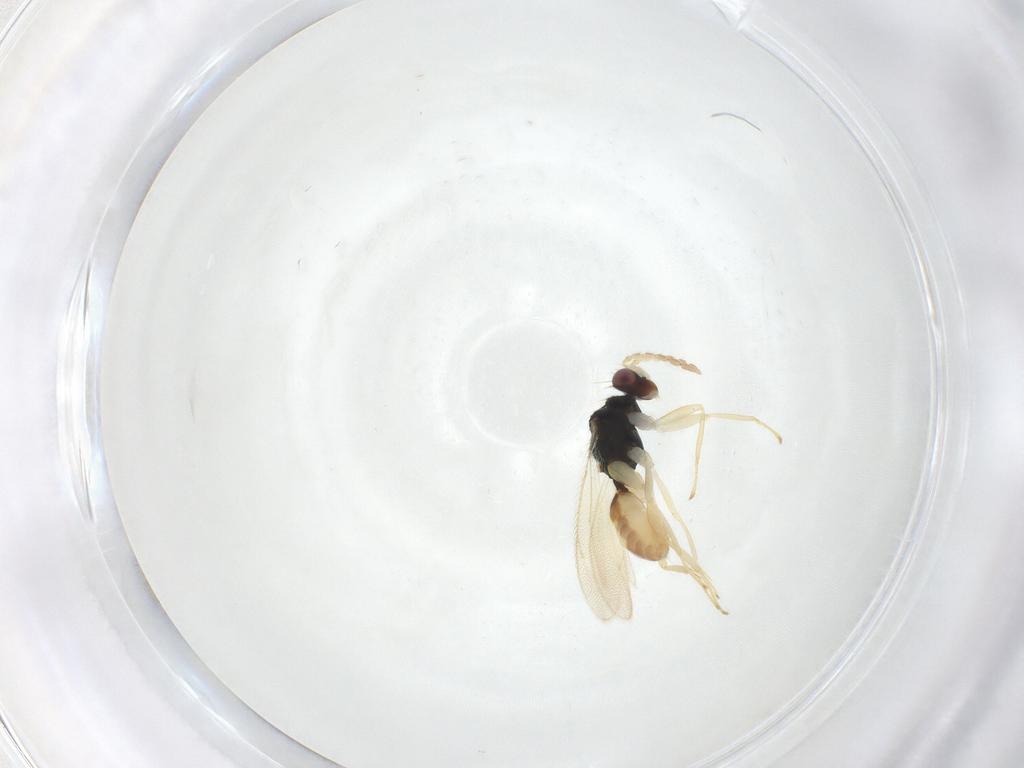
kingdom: Animalia
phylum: Arthropoda
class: Insecta
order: Hymenoptera
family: Eulophidae
